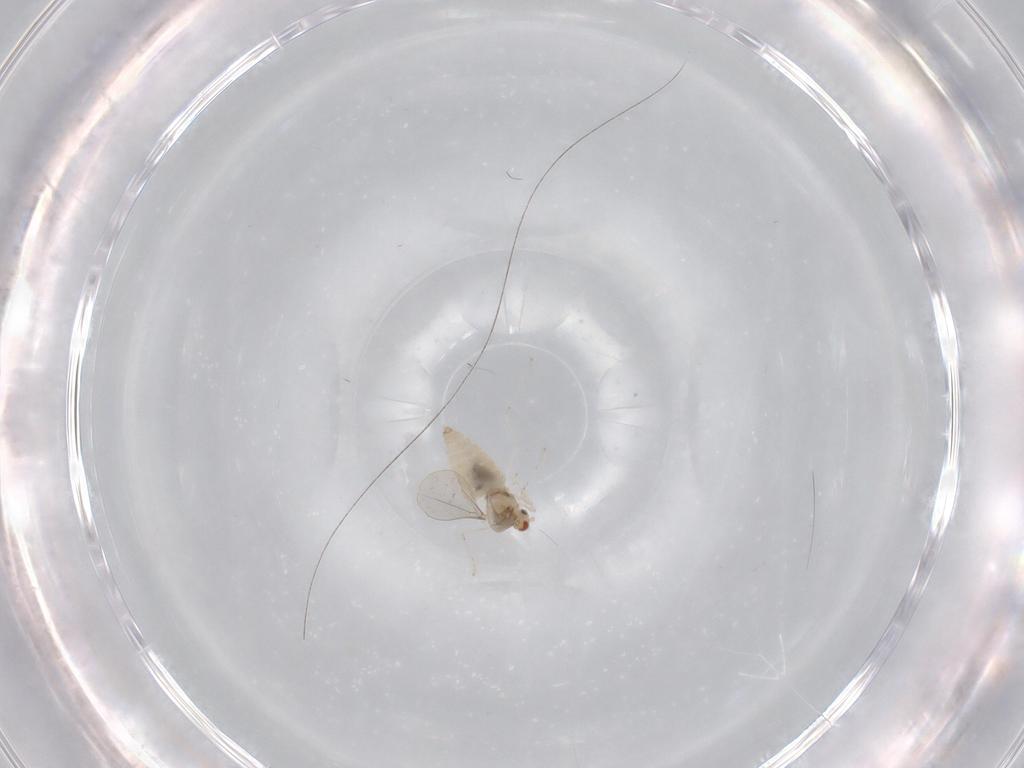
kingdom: Animalia
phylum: Arthropoda
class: Insecta
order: Diptera
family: Cecidomyiidae
